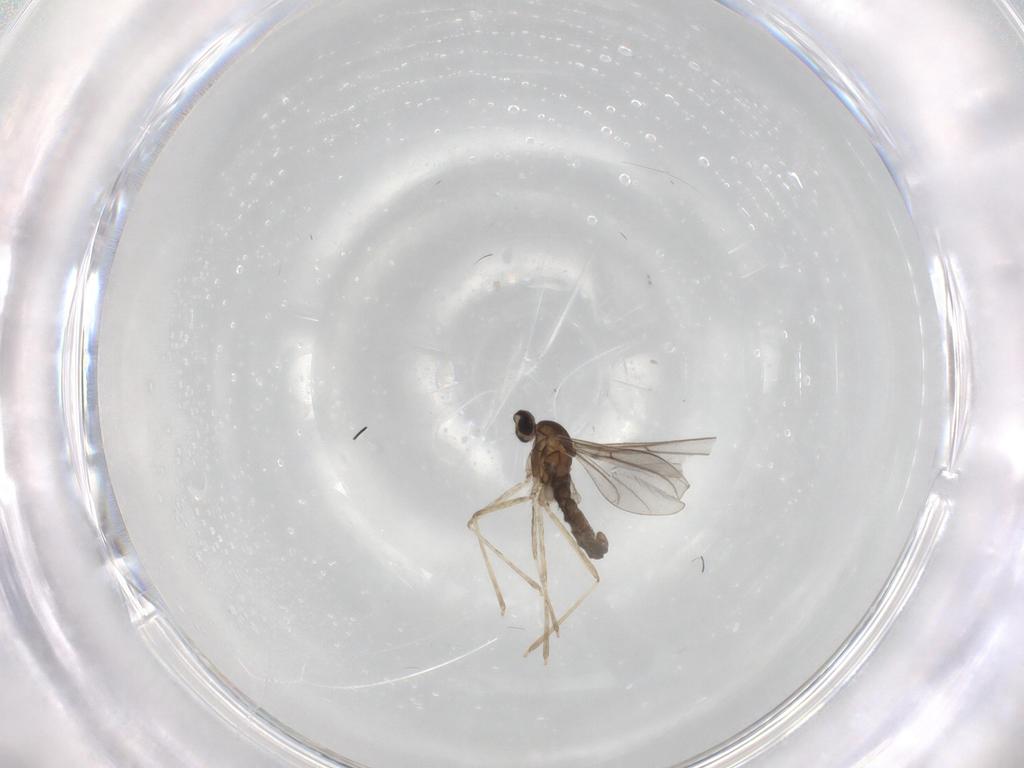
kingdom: Animalia
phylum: Arthropoda
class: Insecta
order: Diptera
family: Cecidomyiidae
